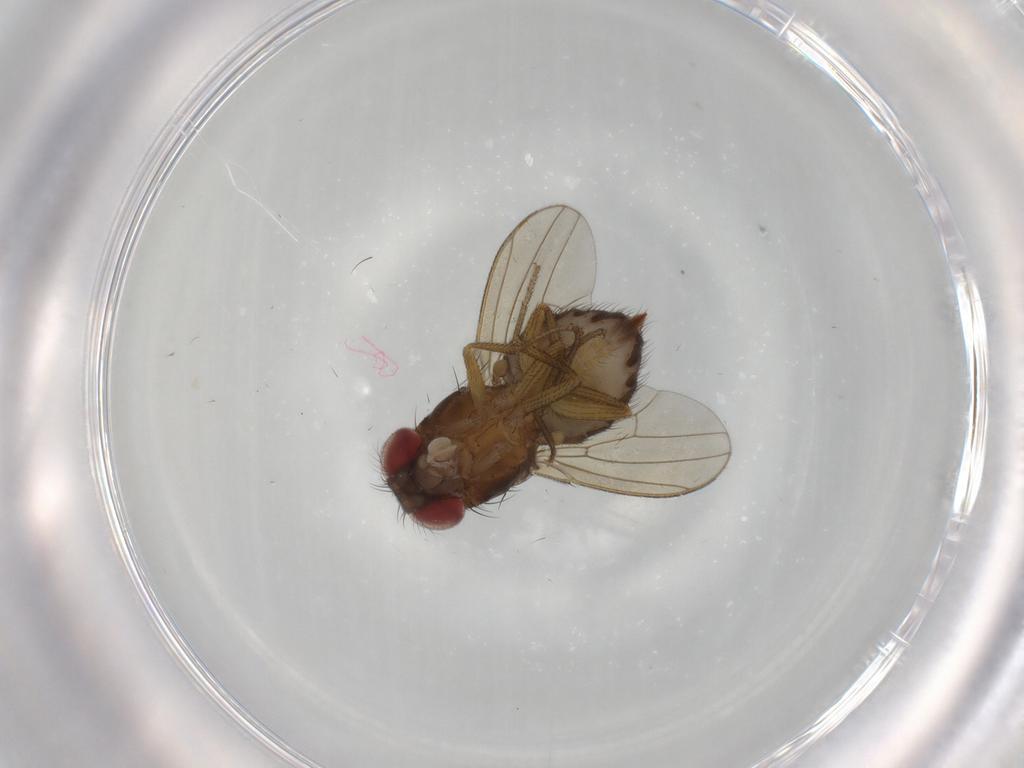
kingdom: Animalia
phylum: Arthropoda
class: Insecta
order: Diptera
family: Drosophilidae
